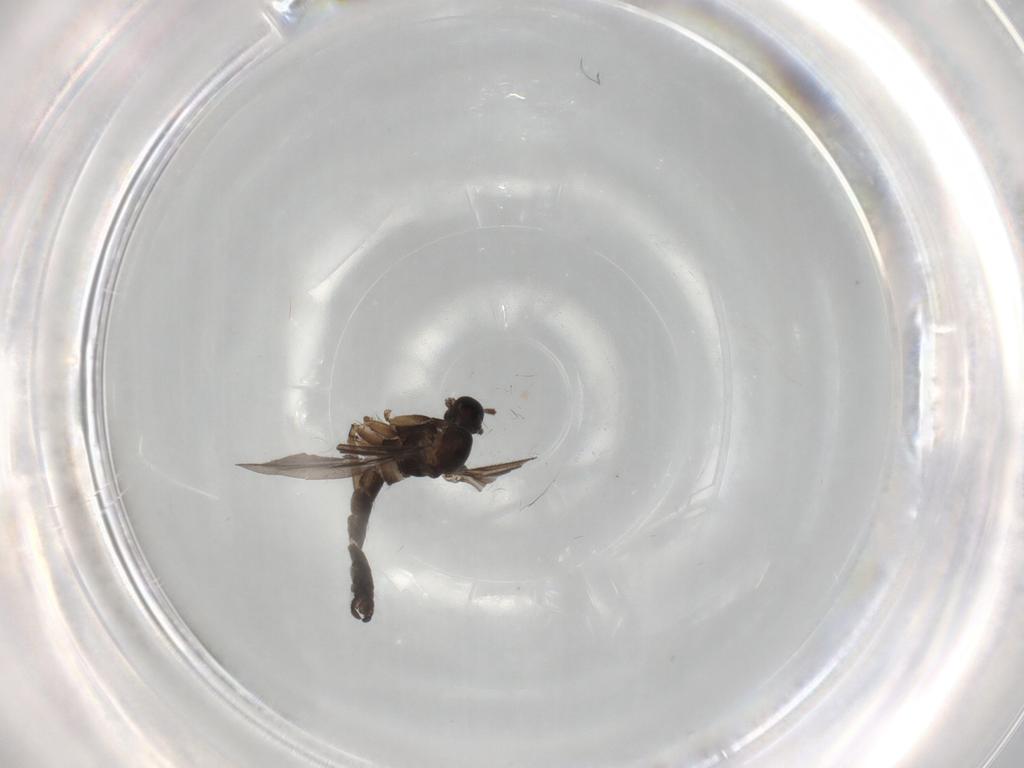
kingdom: Animalia
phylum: Arthropoda
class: Insecta
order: Diptera
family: Sciaridae
